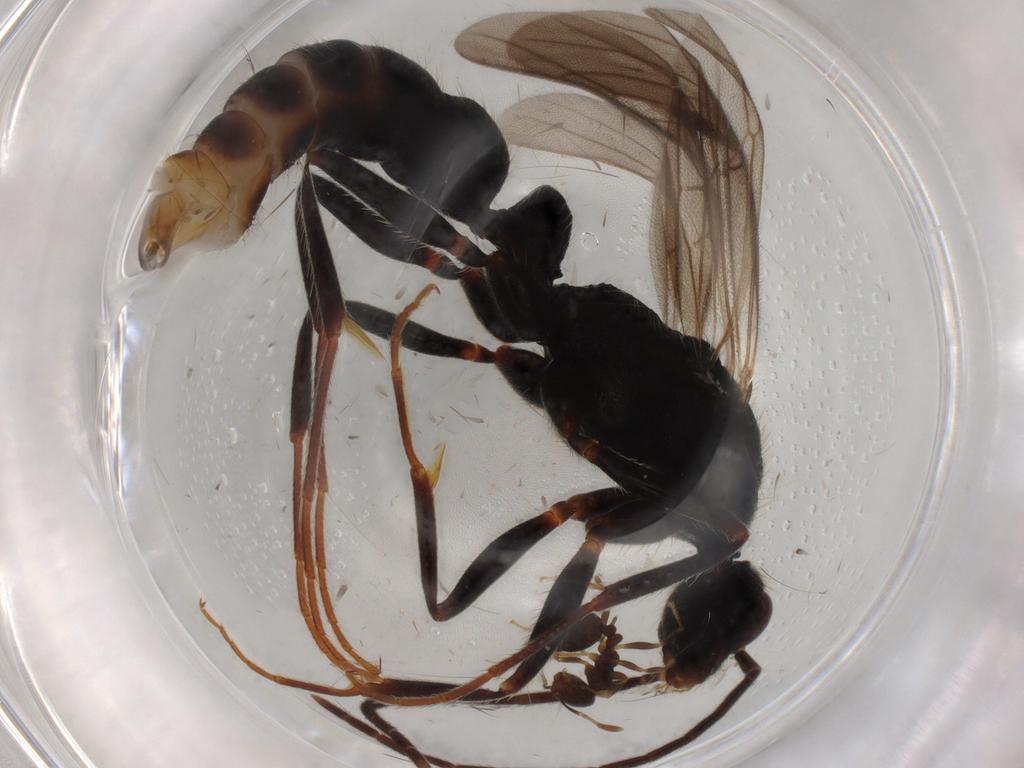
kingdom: Animalia
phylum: Arthropoda
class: Insecta
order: Hymenoptera
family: Formicidae
